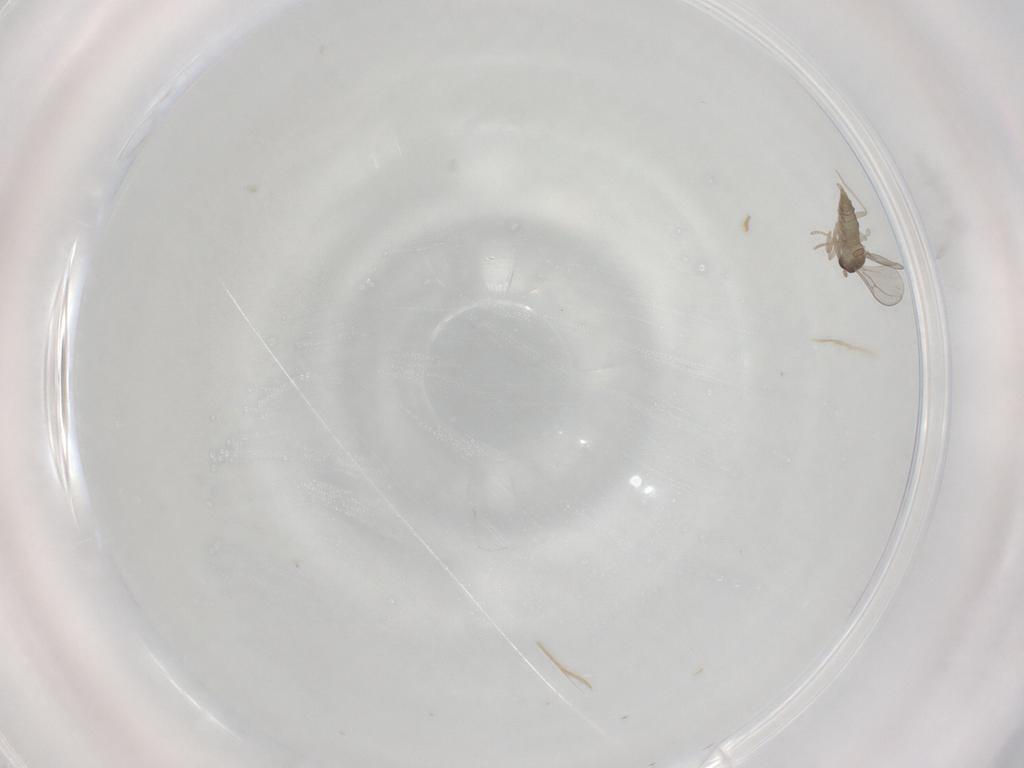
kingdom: Animalia
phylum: Arthropoda
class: Insecta
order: Diptera
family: Cecidomyiidae
